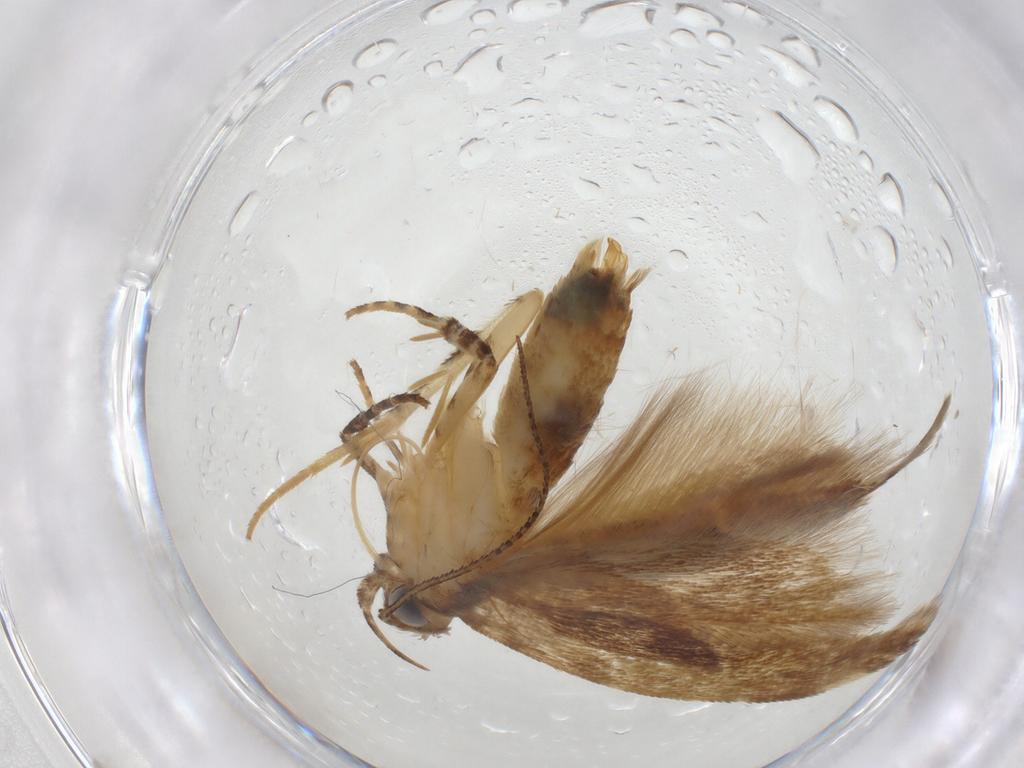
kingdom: Animalia
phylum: Arthropoda
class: Insecta
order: Lepidoptera
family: Gelechiidae
